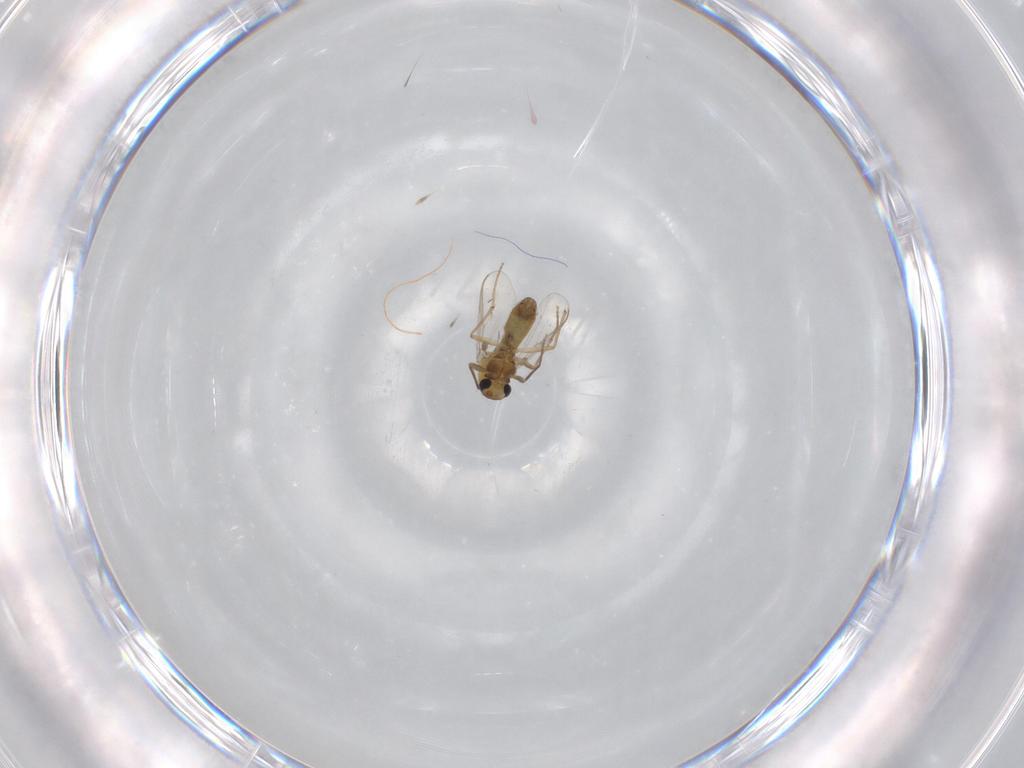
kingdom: Animalia
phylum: Arthropoda
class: Insecta
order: Diptera
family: Chironomidae
